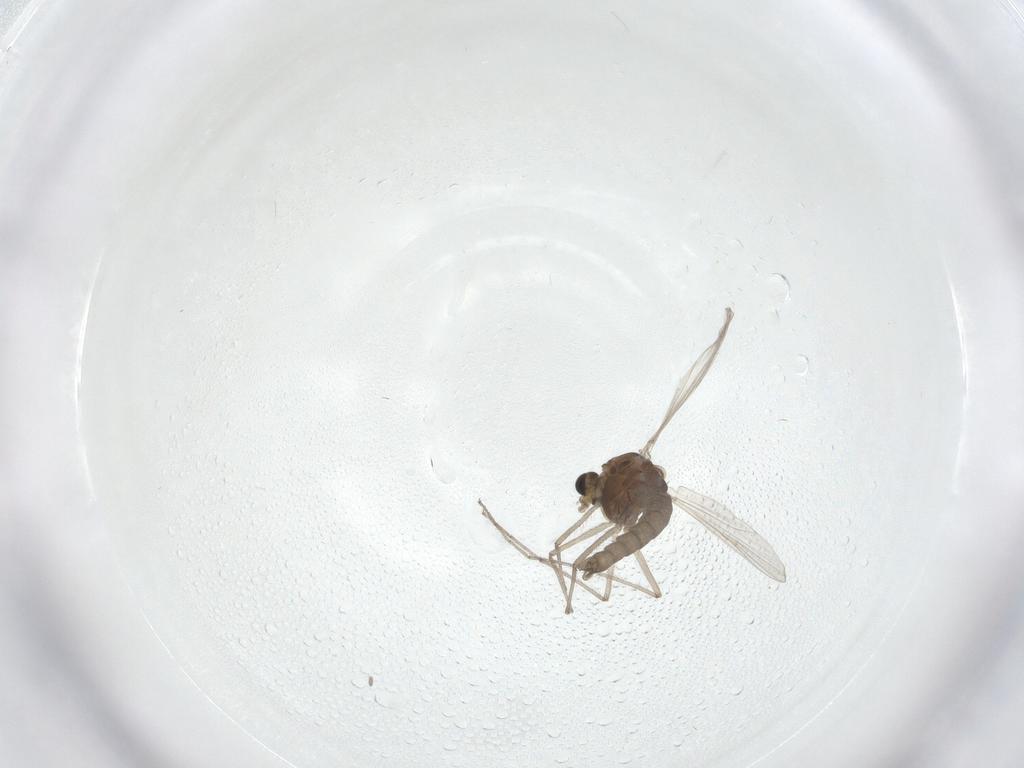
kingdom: Animalia
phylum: Arthropoda
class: Insecta
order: Diptera
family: Chironomidae
